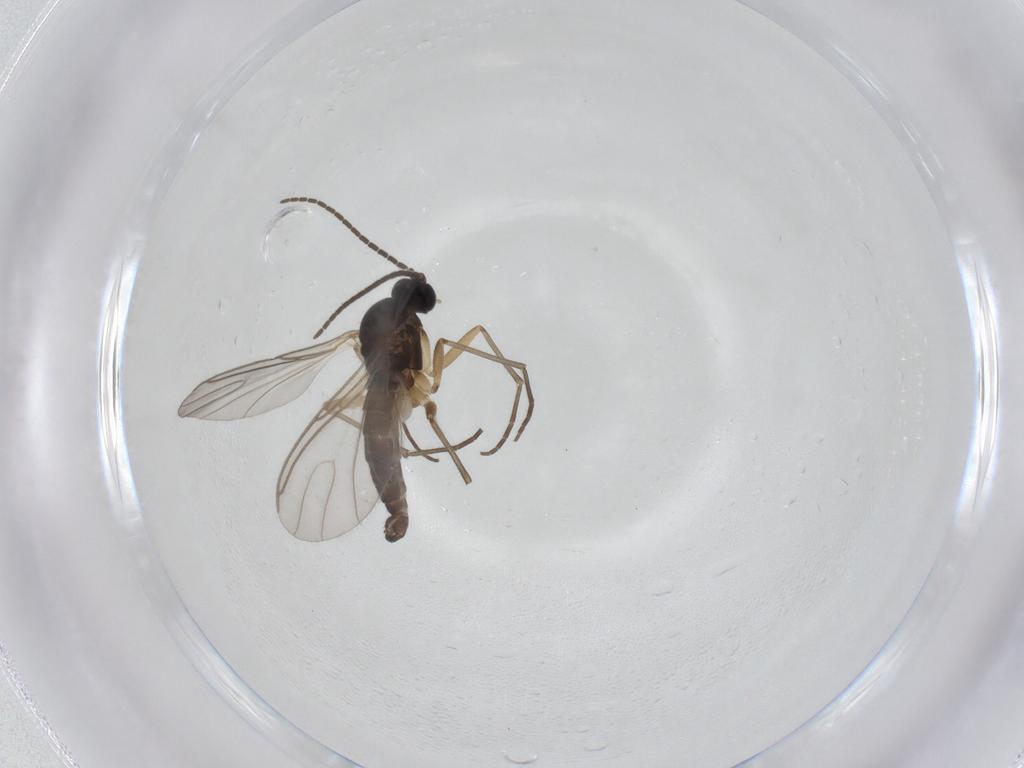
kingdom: Animalia
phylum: Arthropoda
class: Insecta
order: Diptera
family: Sciaridae
